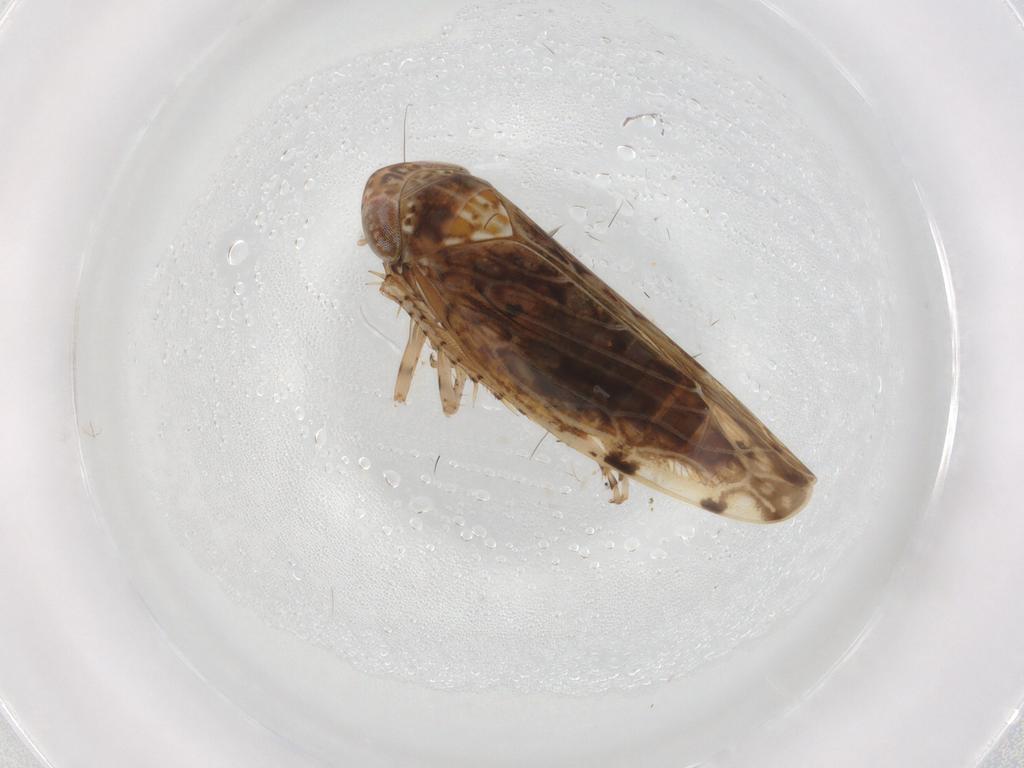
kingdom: Animalia
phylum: Arthropoda
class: Insecta
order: Hemiptera
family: Cicadellidae
